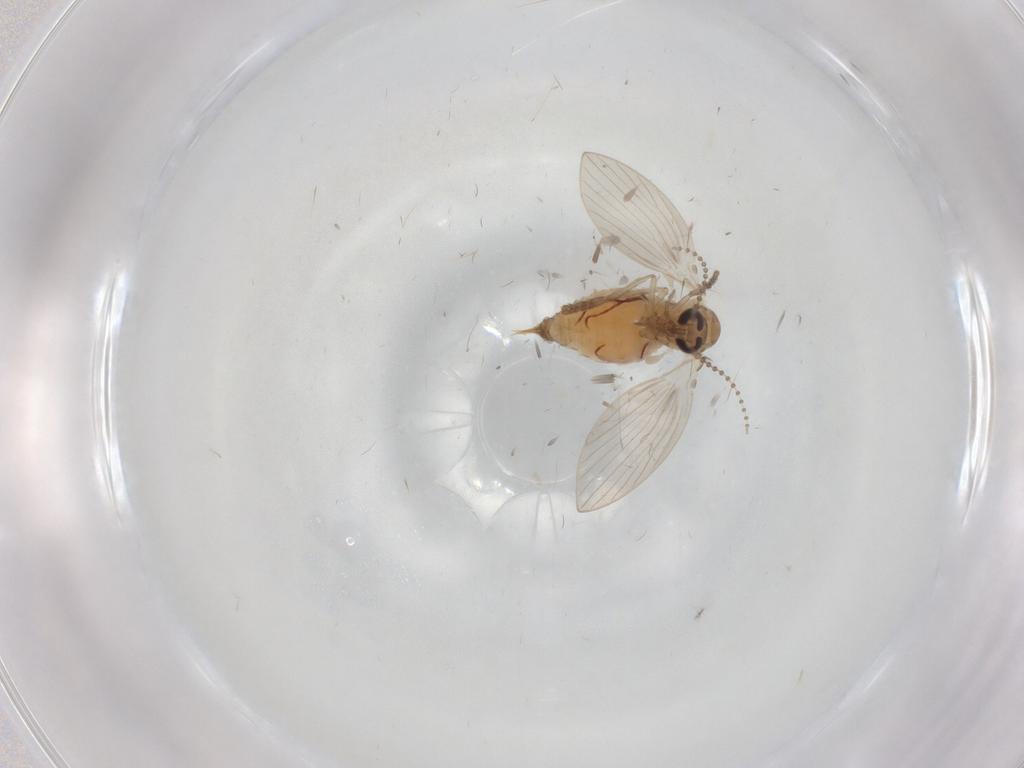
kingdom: Animalia
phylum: Arthropoda
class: Insecta
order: Diptera
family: Psychodidae
